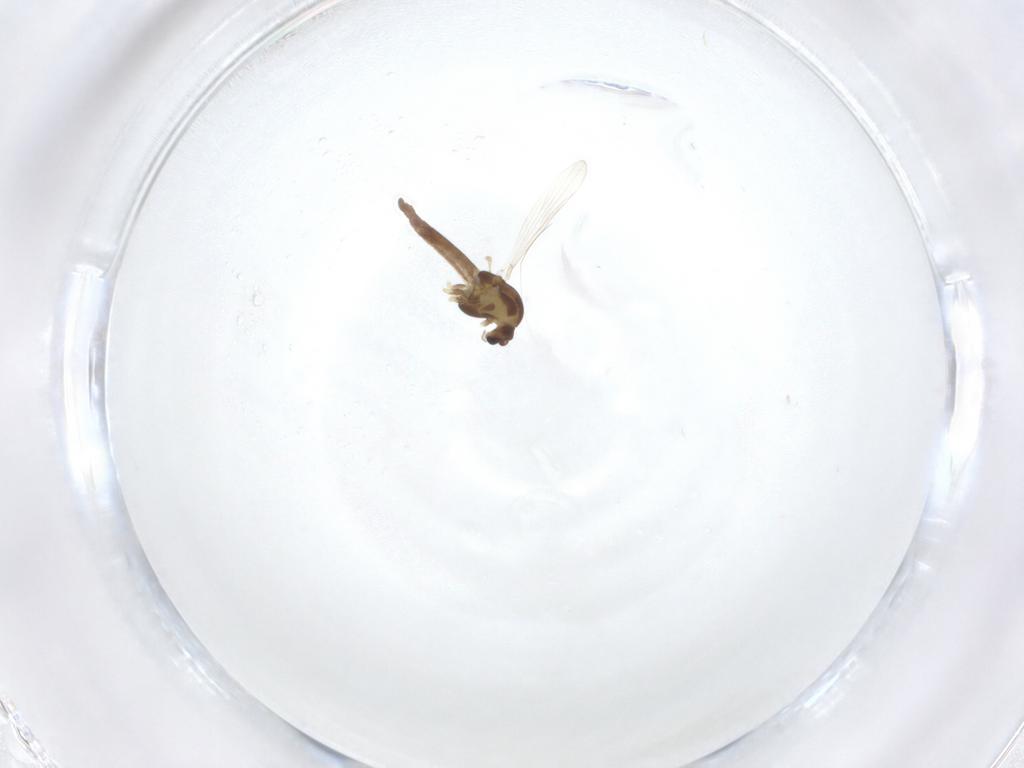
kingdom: Animalia
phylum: Arthropoda
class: Insecta
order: Diptera
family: Chironomidae
